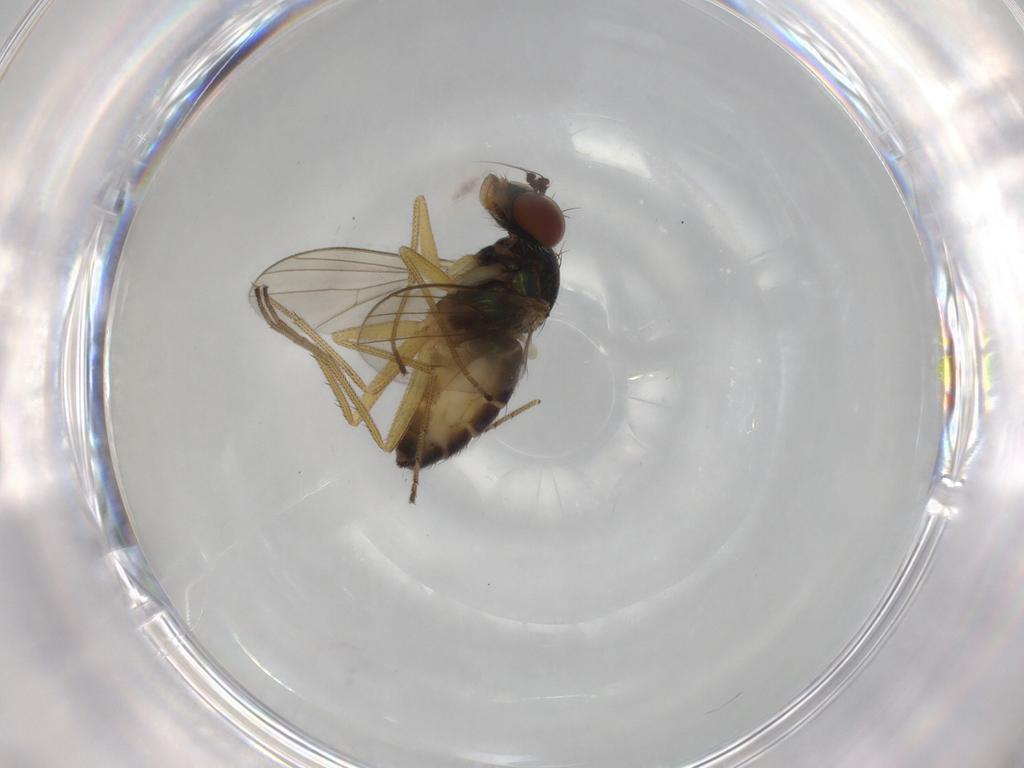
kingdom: Animalia
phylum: Arthropoda
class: Insecta
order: Diptera
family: Dolichopodidae
